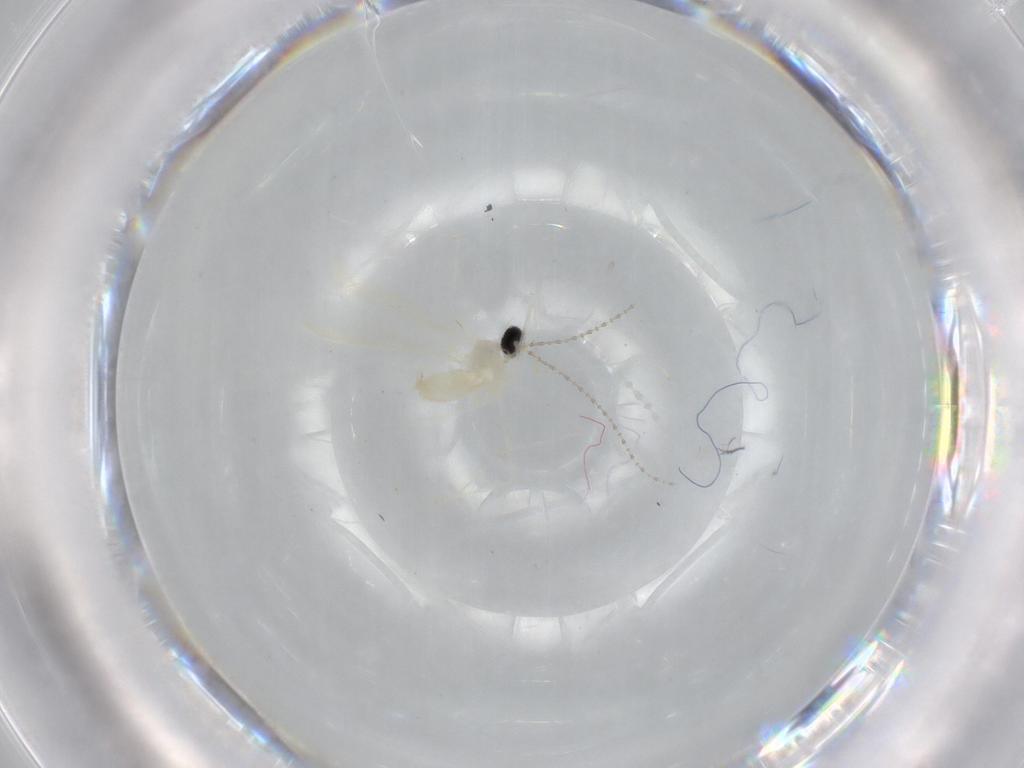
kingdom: Animalia
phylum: Arthropoda
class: Insecta
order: Diptera
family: Cecidomyiidae
